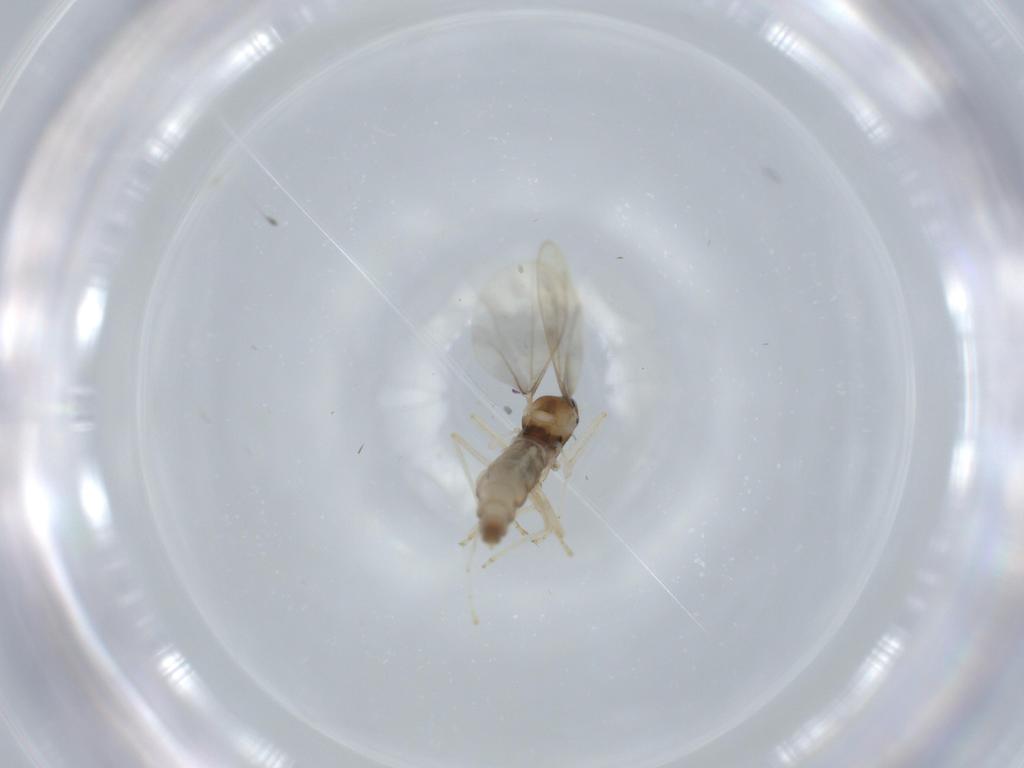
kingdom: Animalia
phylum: Arthropoda
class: Insecta
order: Diptera
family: Cecidomyiidae
